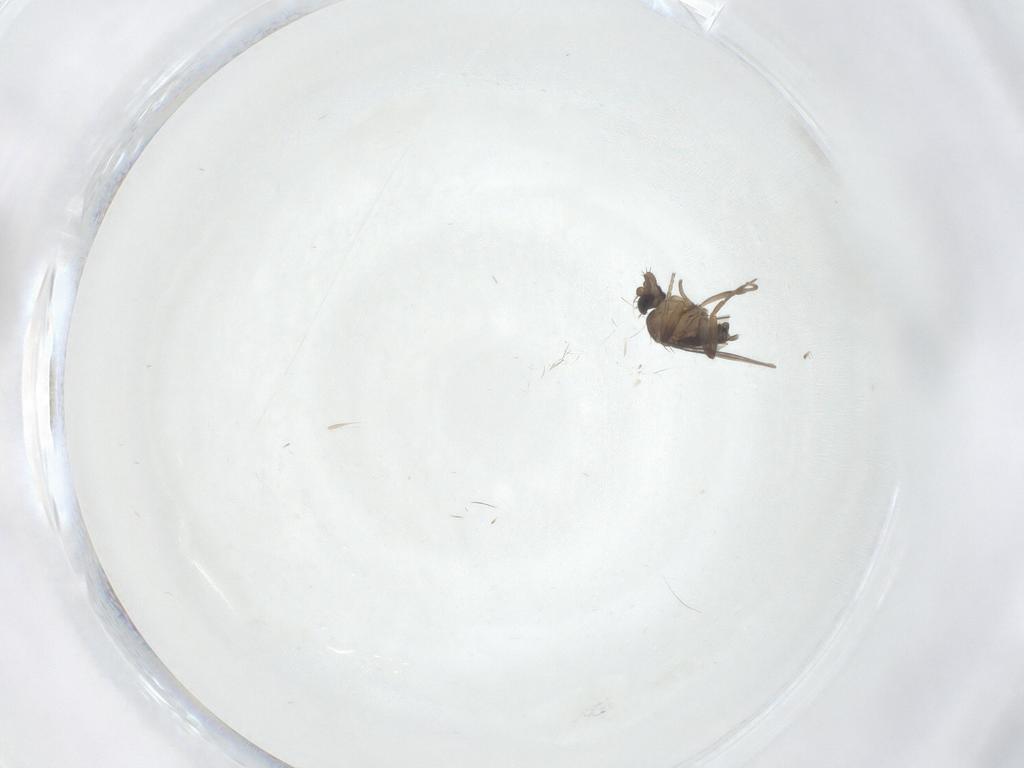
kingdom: Animalia
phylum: Arthropoda
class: Insecta
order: Diptera
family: Phoridae
